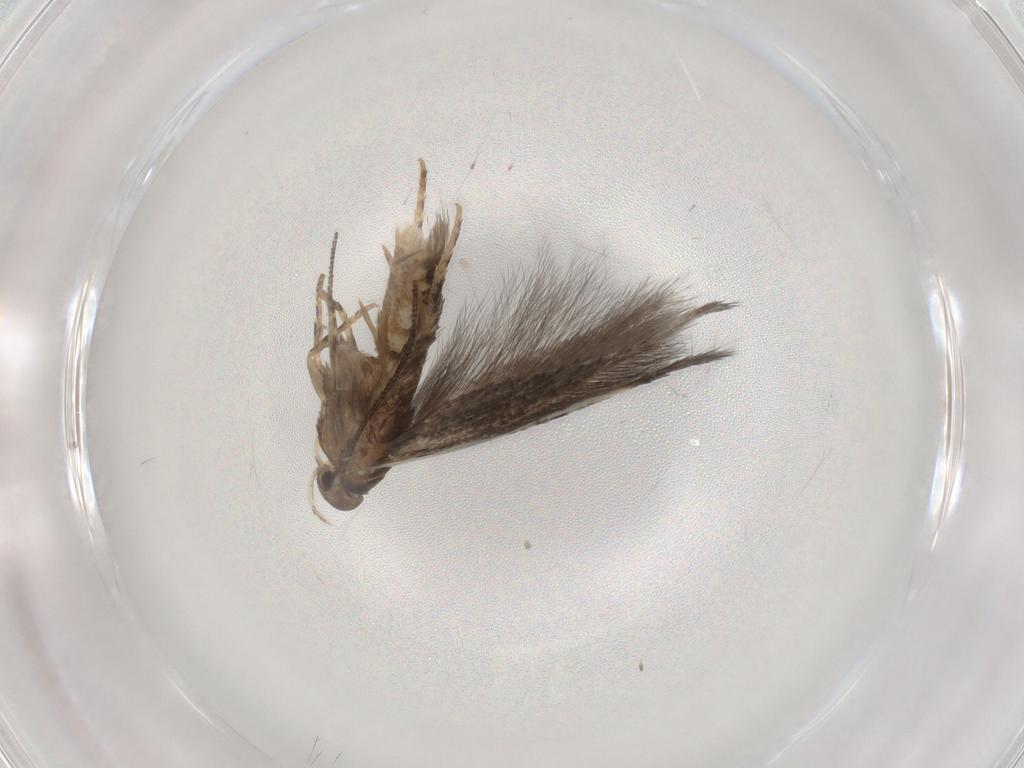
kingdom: Animalia
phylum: Arthropoda
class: Insecta
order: Lepidoptera
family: Elachistidae
